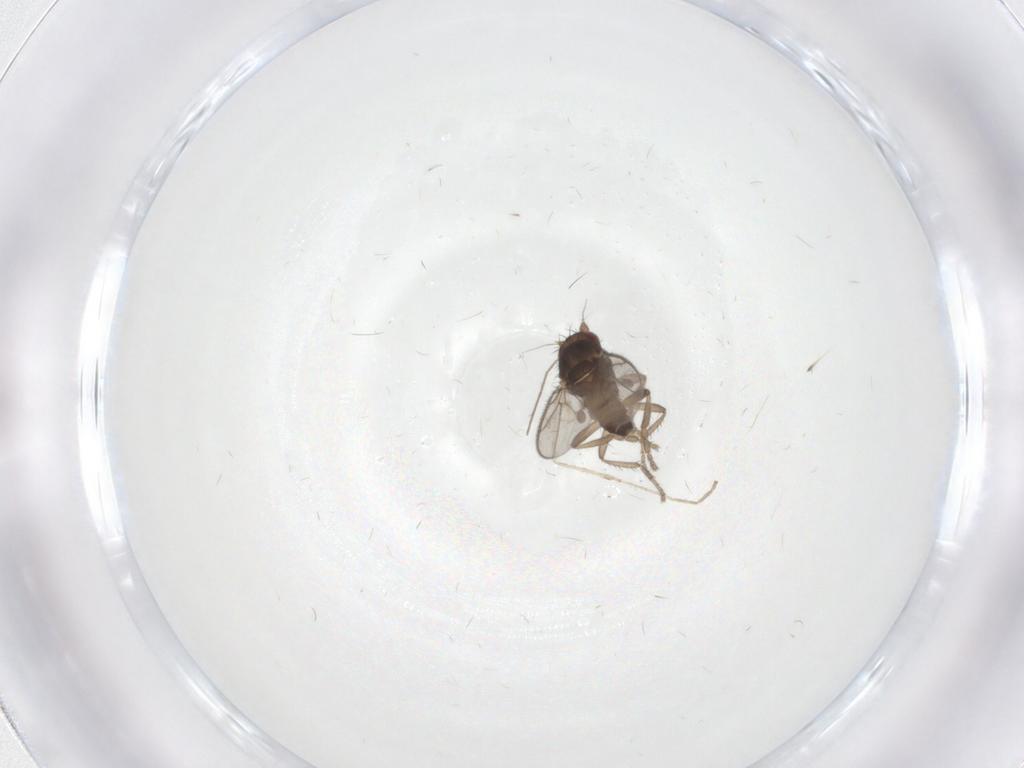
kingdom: Animalia
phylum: Arthropoda
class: Insecta
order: Diptera
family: Sphaeroceridae
